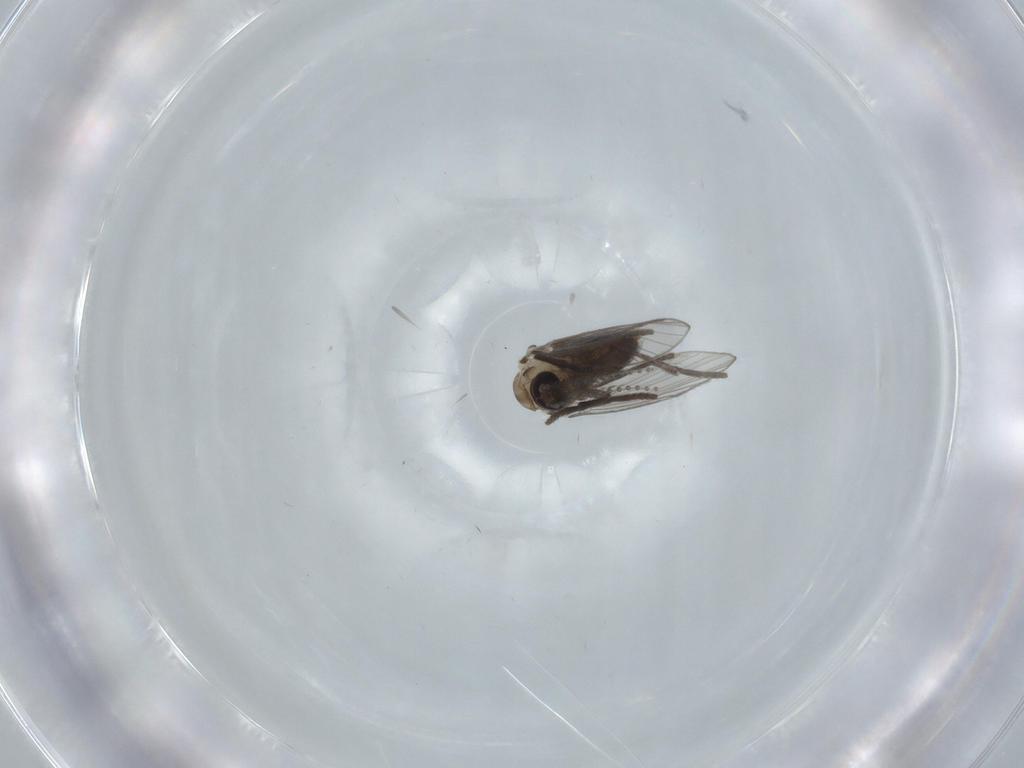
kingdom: Animalia
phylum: Arthropoda
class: Insecta
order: Diptera
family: Psychodidae
